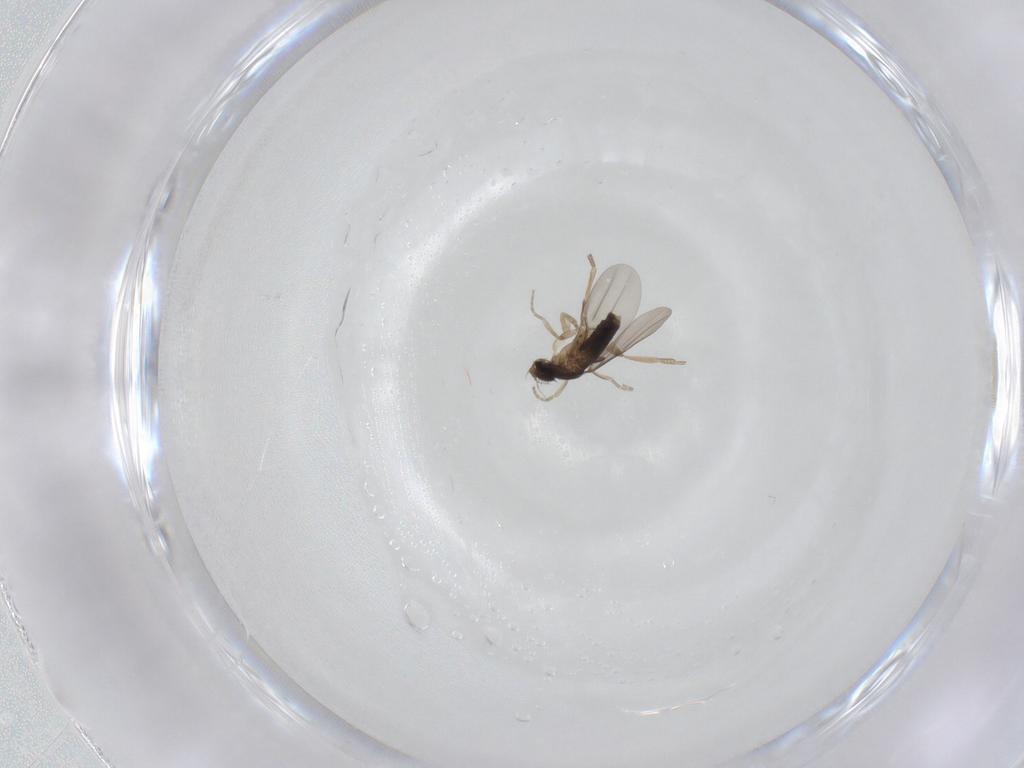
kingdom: Animalia
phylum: Arthropoda
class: Insecta
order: Diptera
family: Phoridae
